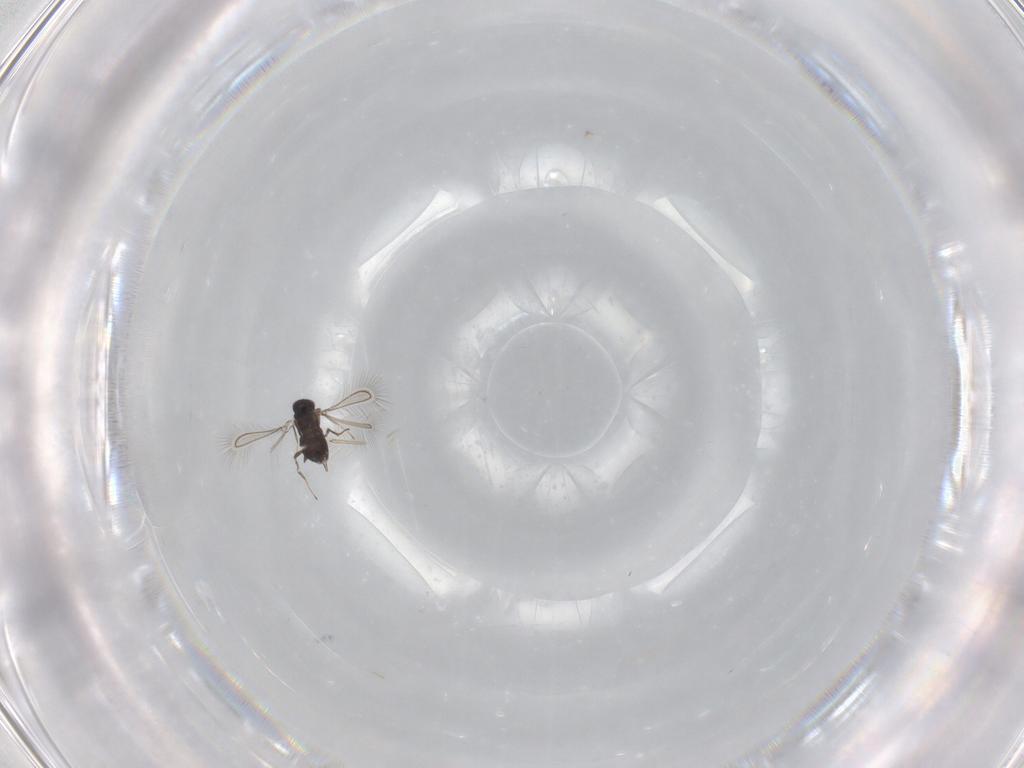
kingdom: Animalia
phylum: Arthropoda
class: Insecta
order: Hymenoptera
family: Mymaridae
